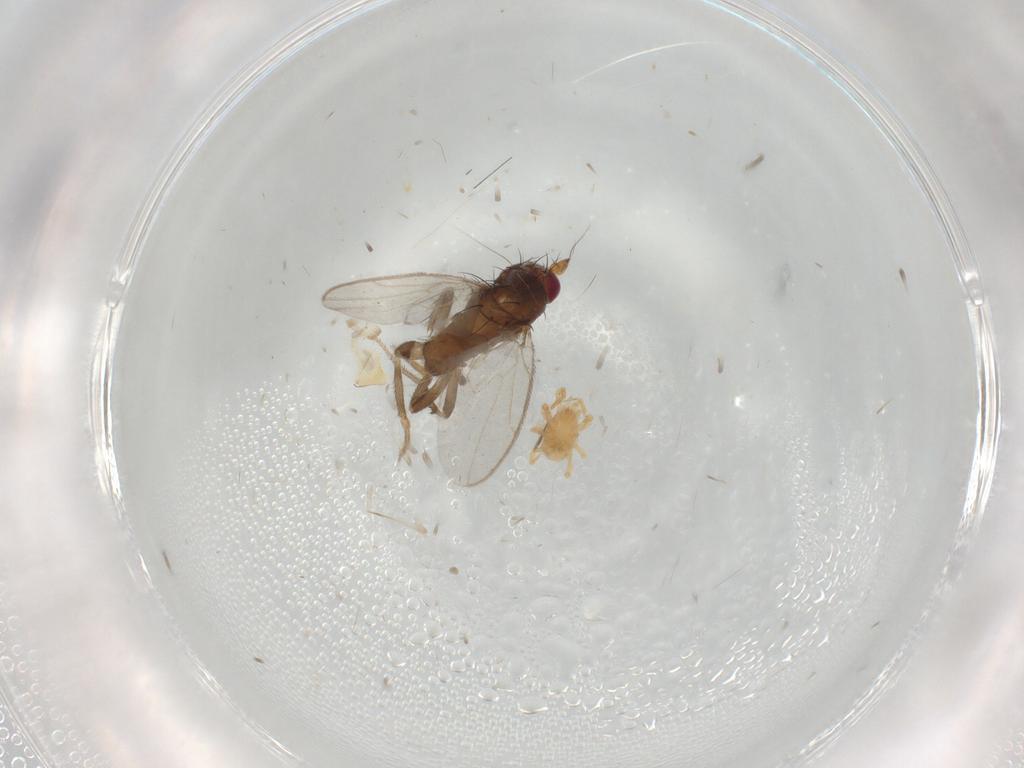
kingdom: Animalia
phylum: Arthropoda
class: Insecta
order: Diptera
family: Sphaeroceridae
